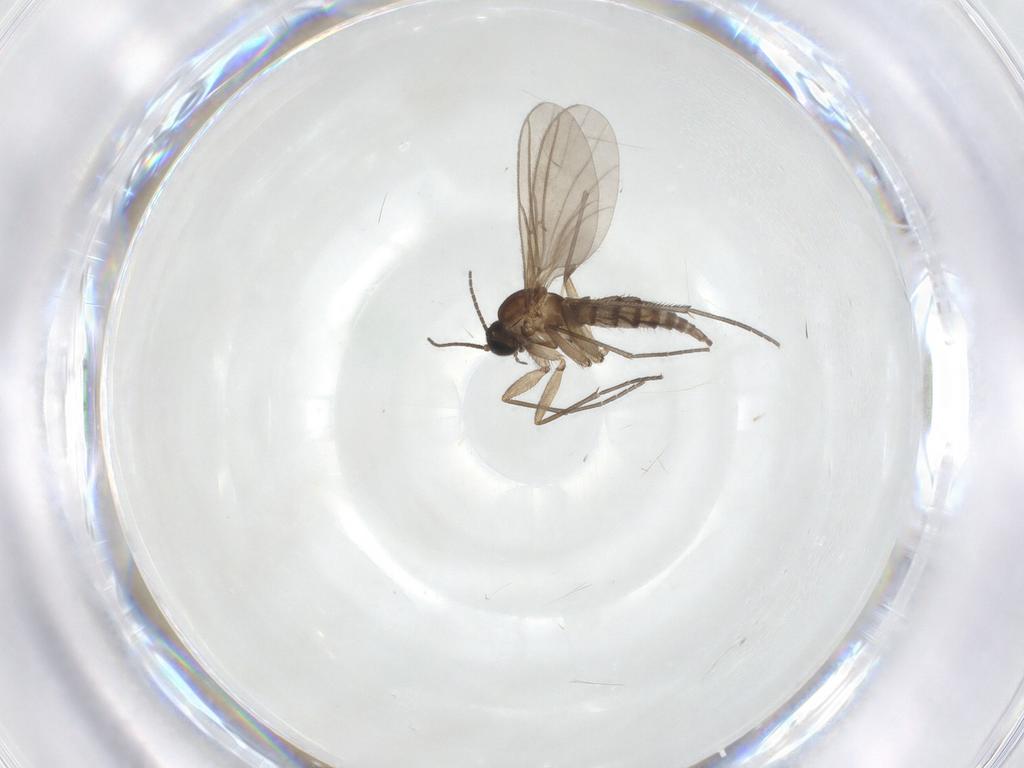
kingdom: Animalia
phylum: Arthropoda
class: Insecta
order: Diptera
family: Sciaridae
